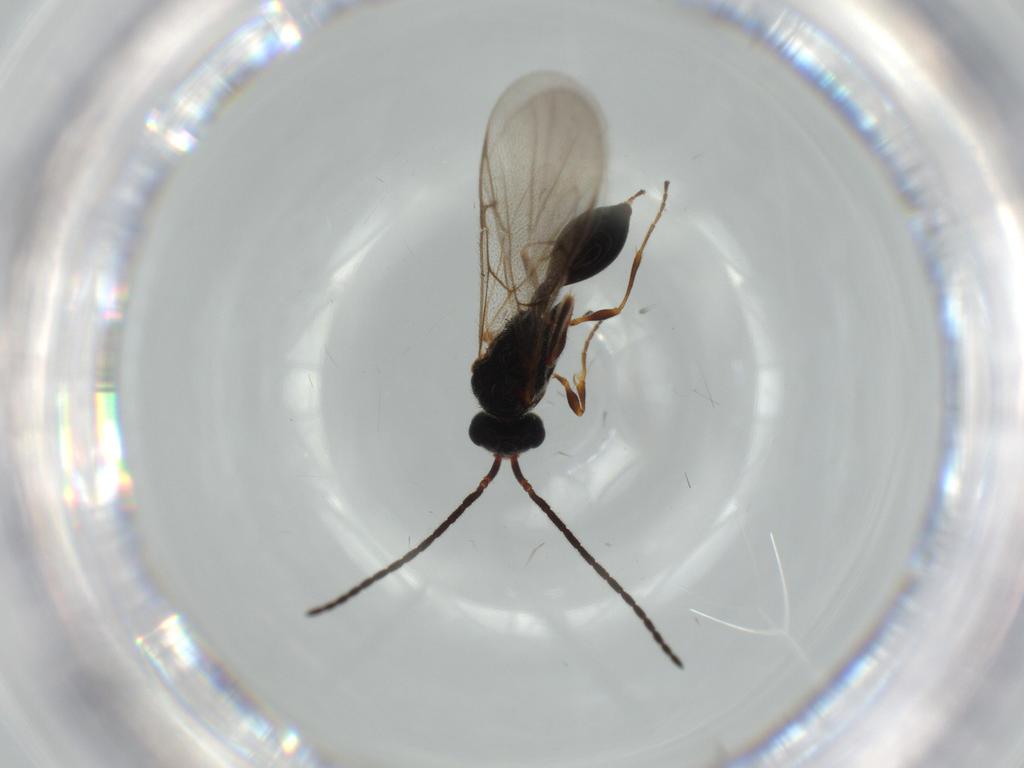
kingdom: Animalia
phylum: Arthropoda
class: Insecta
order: Hymenoptera
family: Diapriidae
